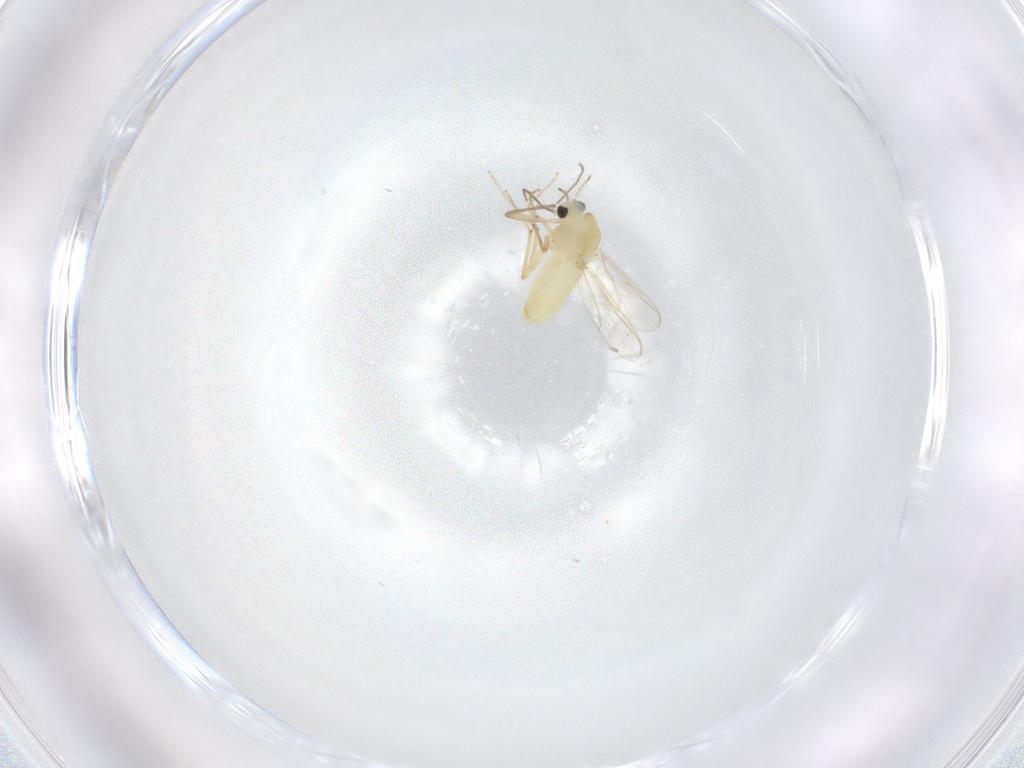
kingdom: Animalia
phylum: Arthropoda
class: Insecta
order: Diptera
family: Chironomidae
